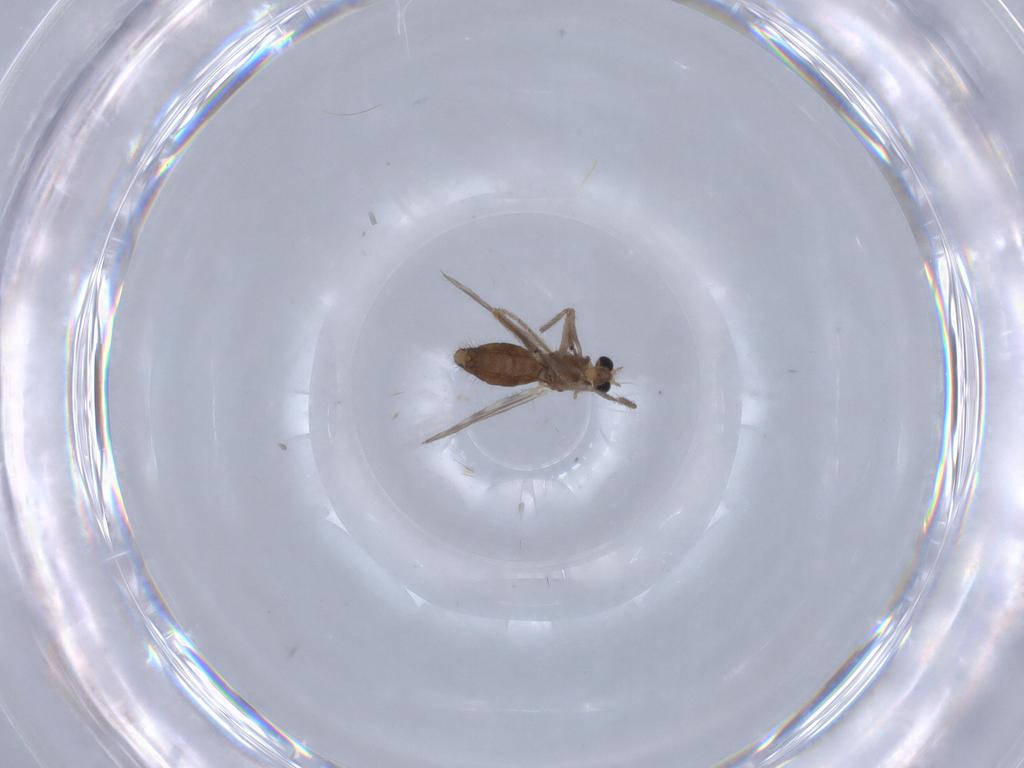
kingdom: Animalia
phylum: Arthropoda
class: Insecta
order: Diptera
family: Chironomidae
